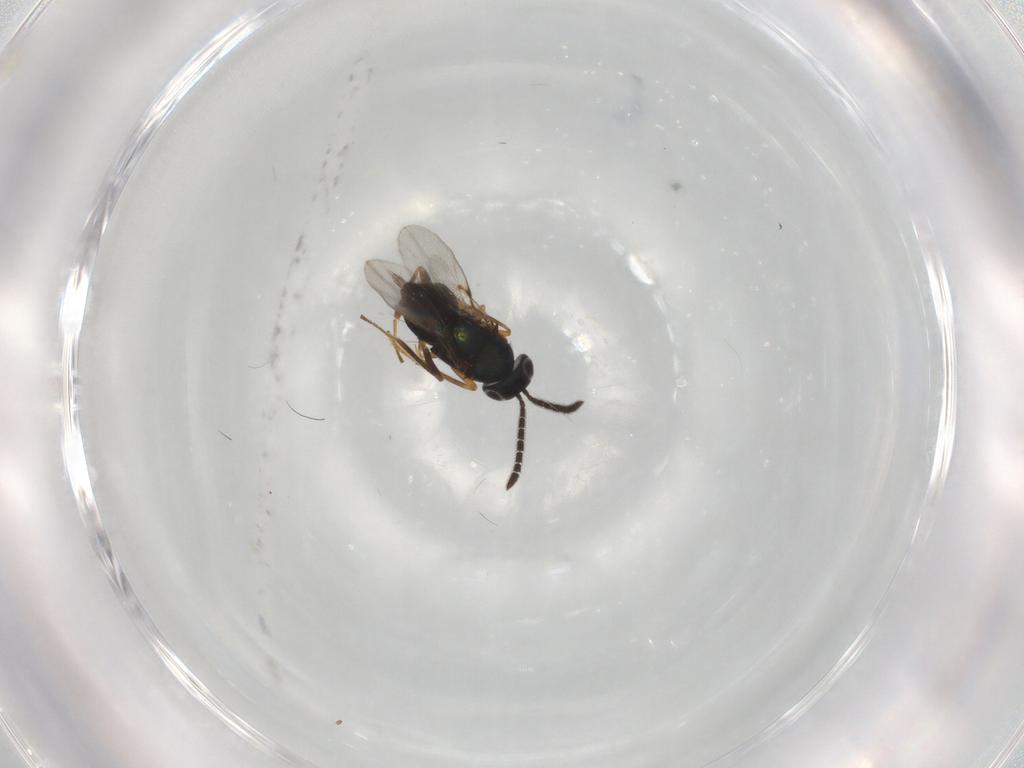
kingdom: Animalia
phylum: Arthropoda
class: Insecta
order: Hymenoptera
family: Encyrtidae
